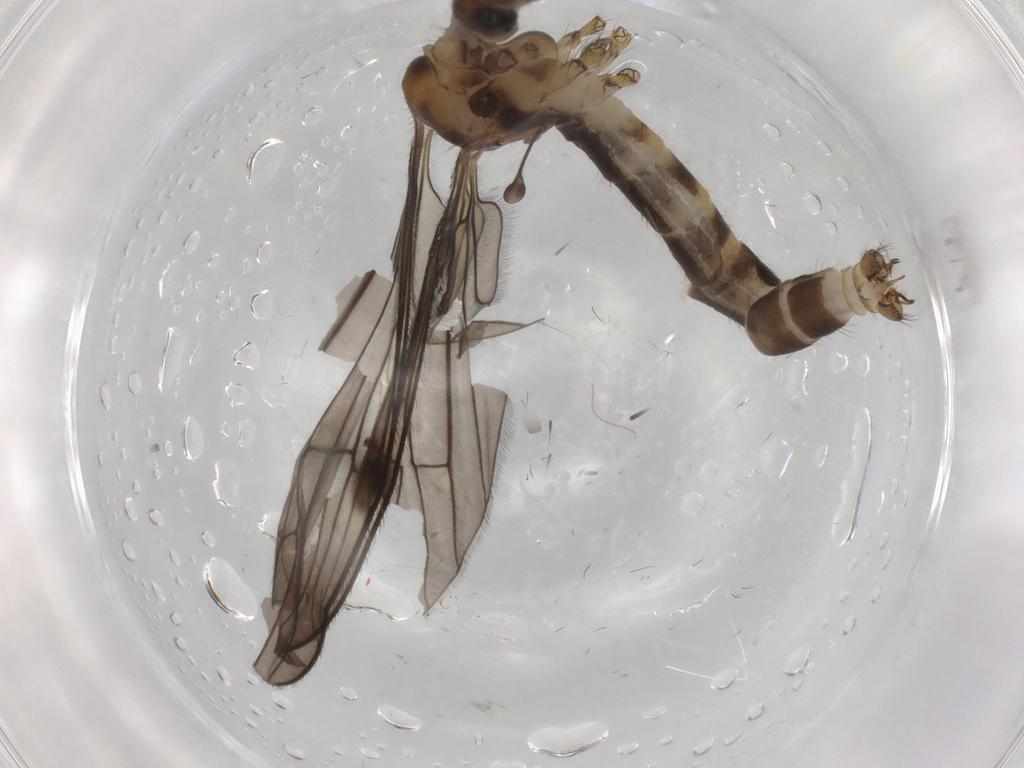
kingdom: Animalia
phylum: Arthropoda
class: Insecta
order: Diptera
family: Limoniidae
